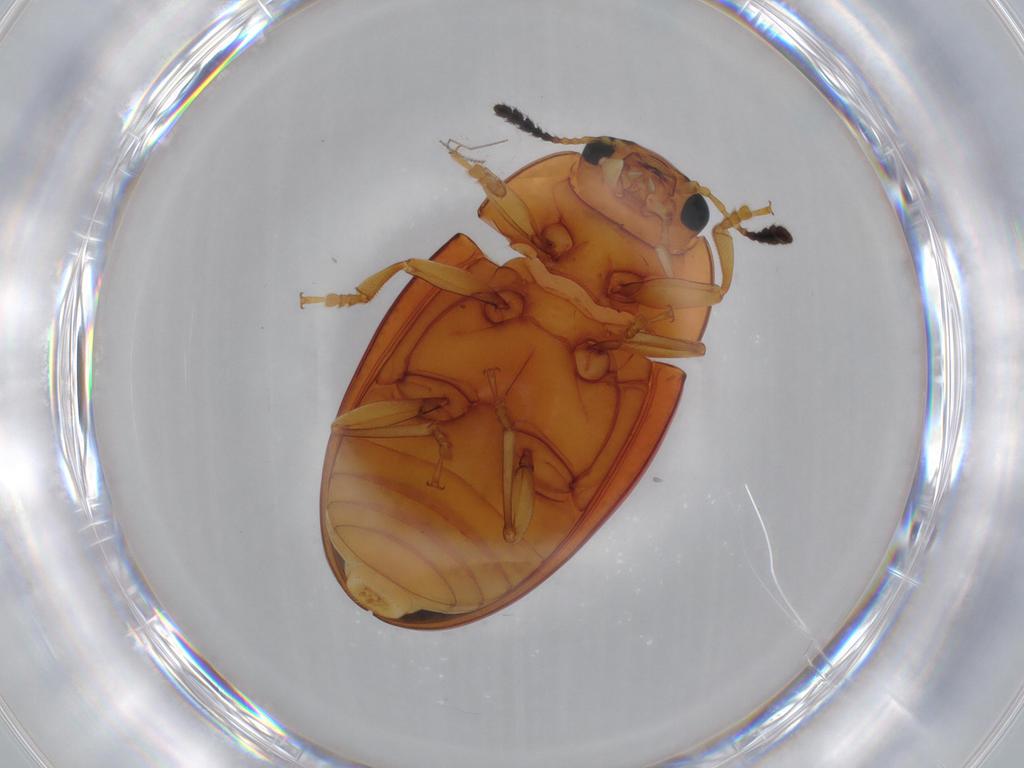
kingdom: Animalia
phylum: Arthropoda
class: Insecta
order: Coleoptera
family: Erotylidae
